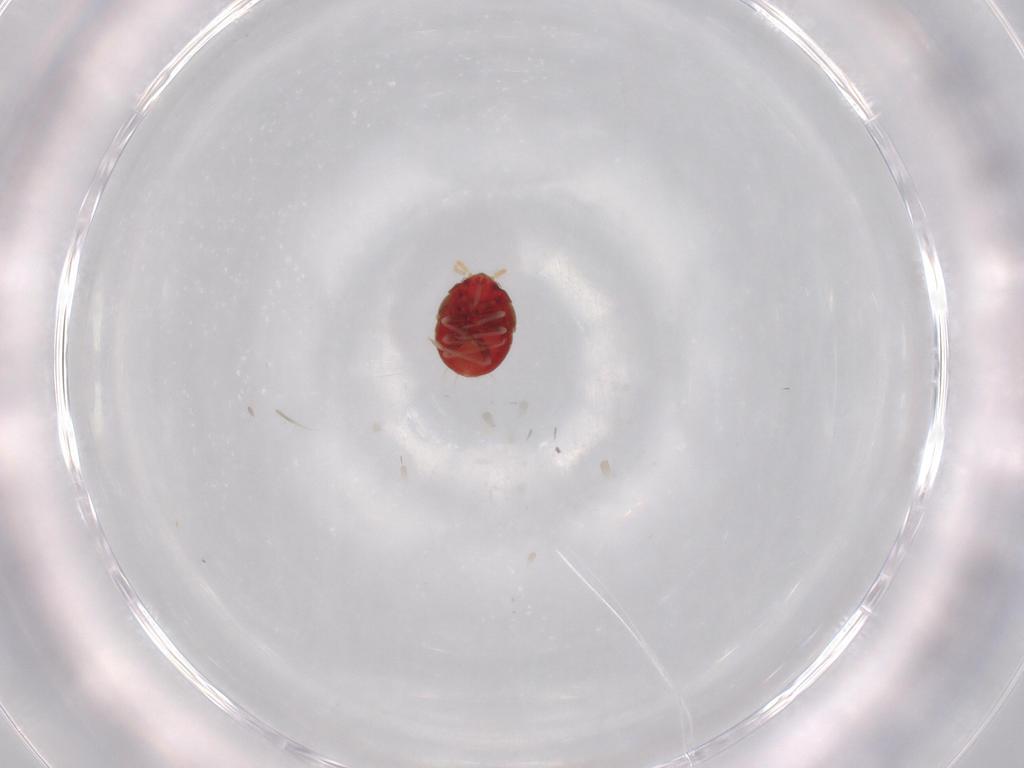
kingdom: Animalia
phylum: Arthropoda
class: Insecta
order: Hemiptera
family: Anthocoridae
